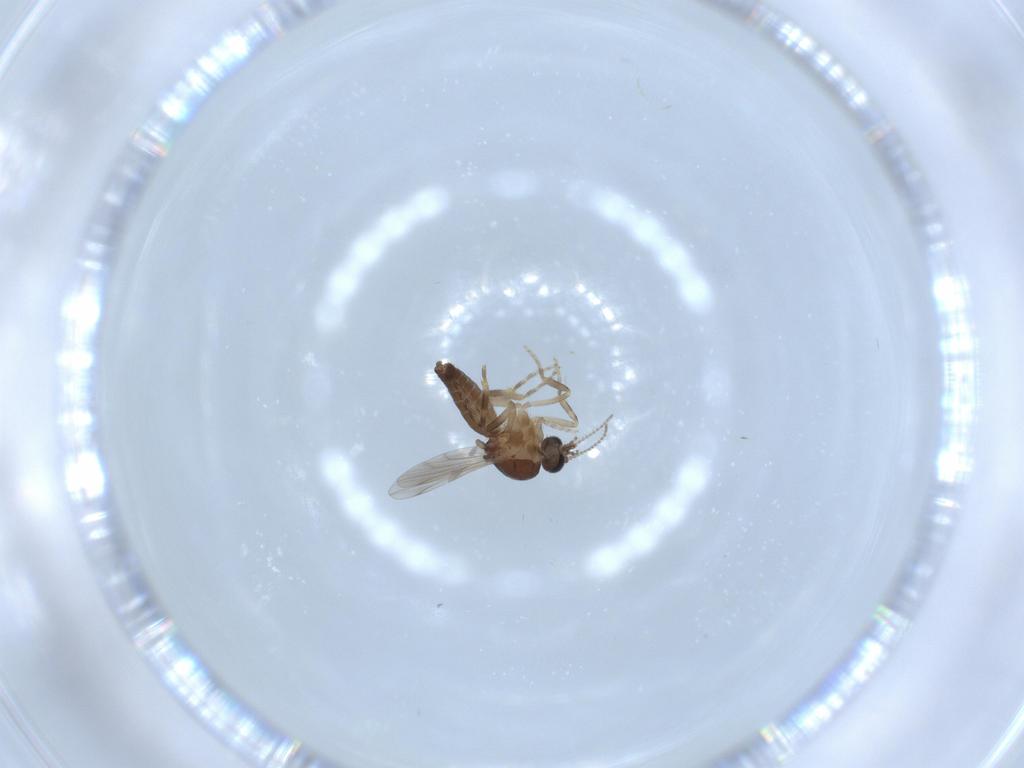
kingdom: Animalia
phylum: Arthropoda
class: Insecta
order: Diptera
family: Ceratopogonidae
